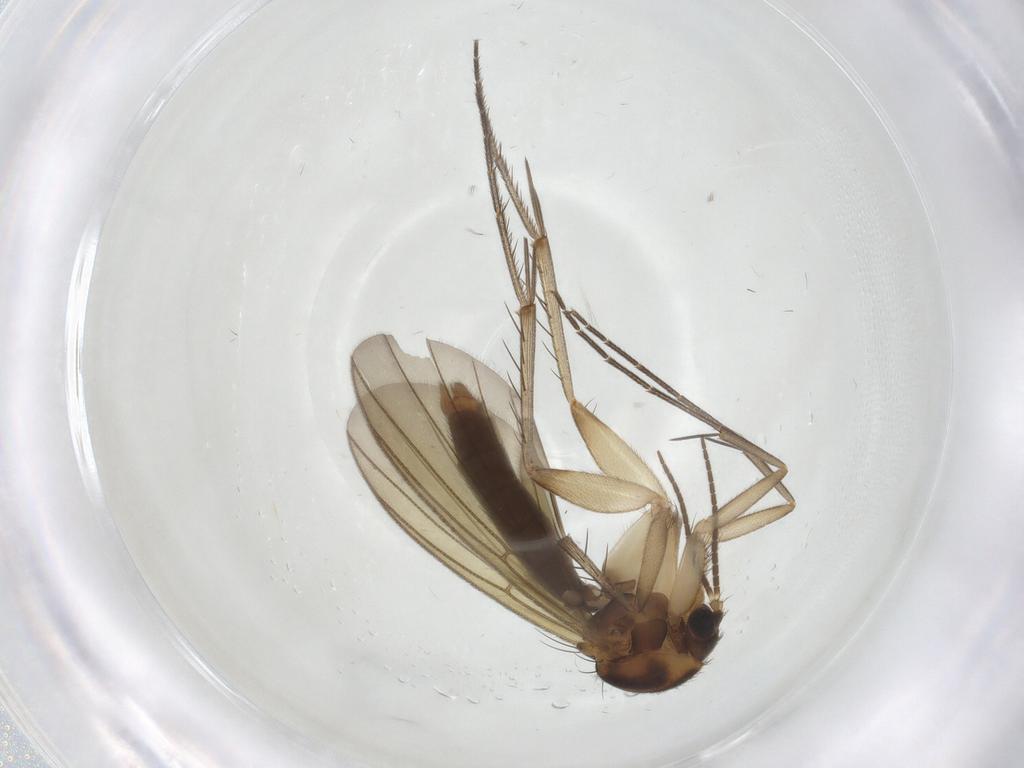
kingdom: Animalia
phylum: Arthropoda
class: Insecta
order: Diptera
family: Mycetophilidae
